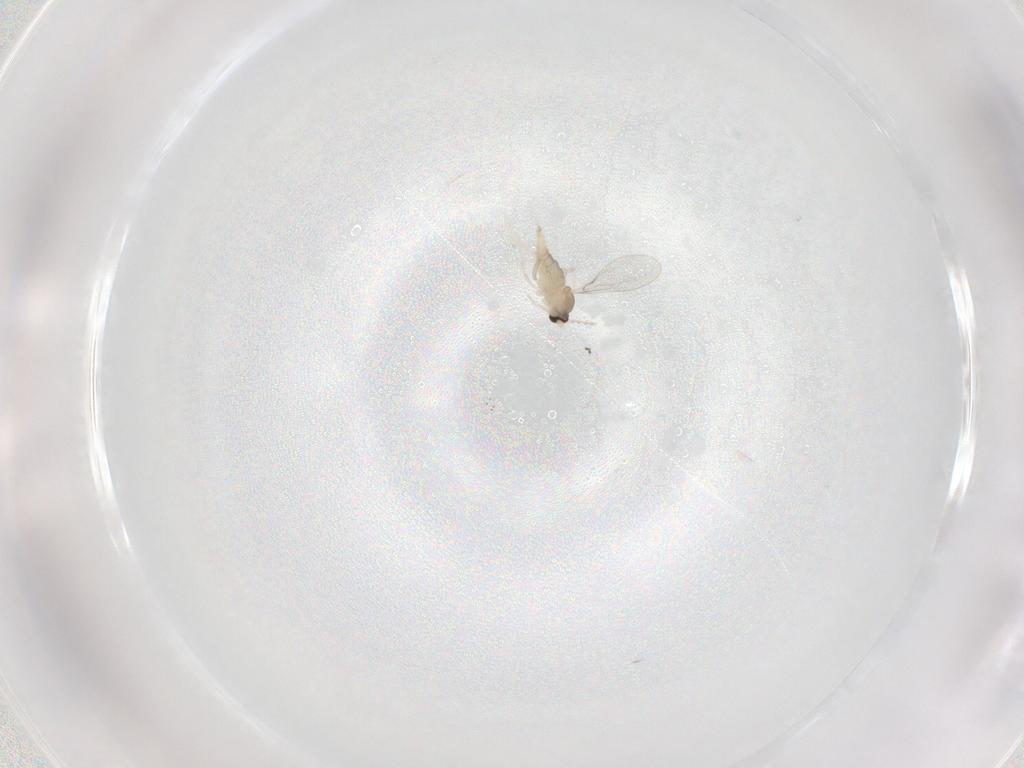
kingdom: Animalia
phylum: Arthropoda
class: Insecta
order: Diptera
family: Cecidomyiidae
